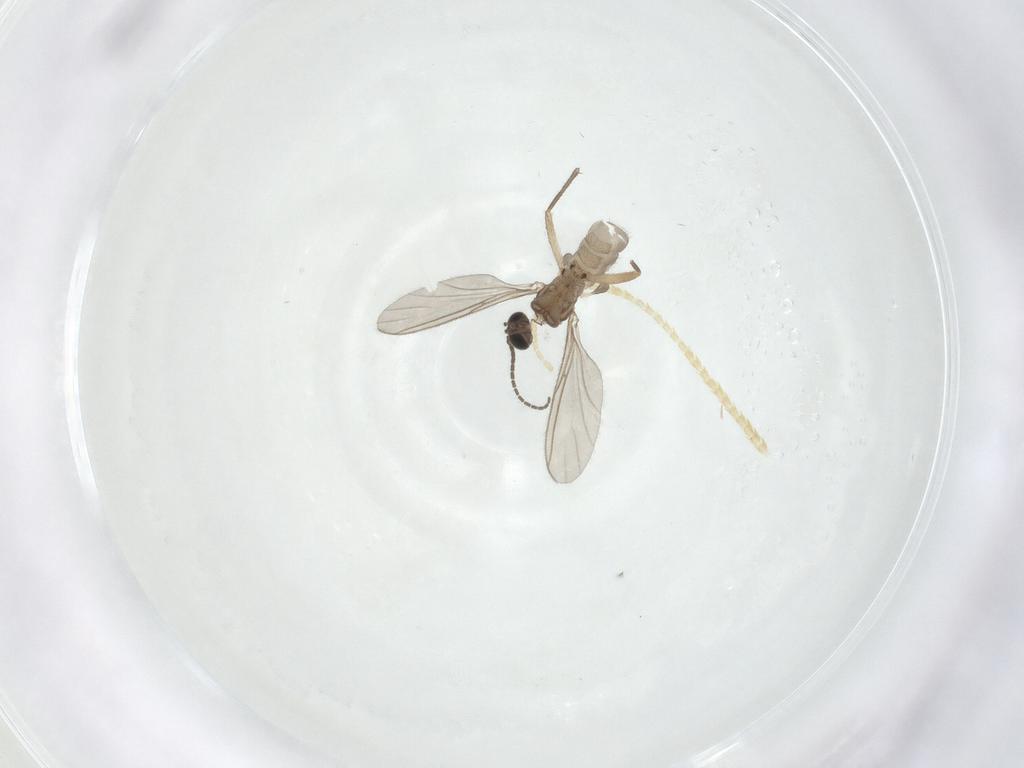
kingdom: Animalia
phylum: Arthropoda
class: Insecta
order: Diptera
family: Sciaridae
